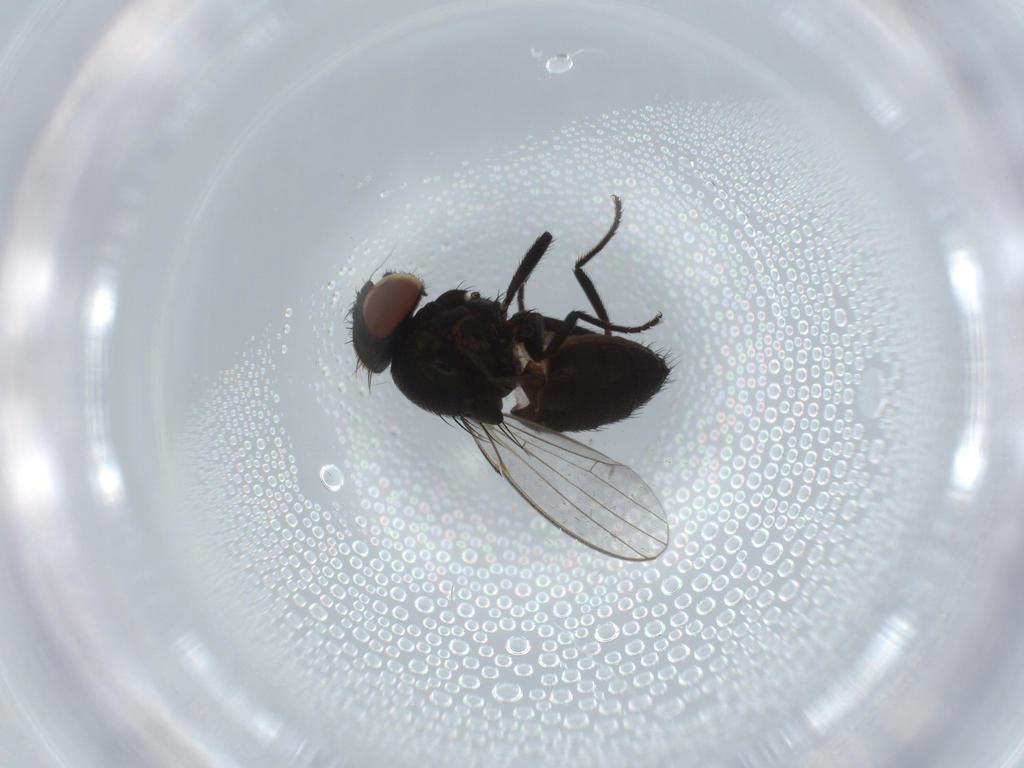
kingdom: Animalia
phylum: Arthropoda
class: Insecta
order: Diptera
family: Milichiidae
